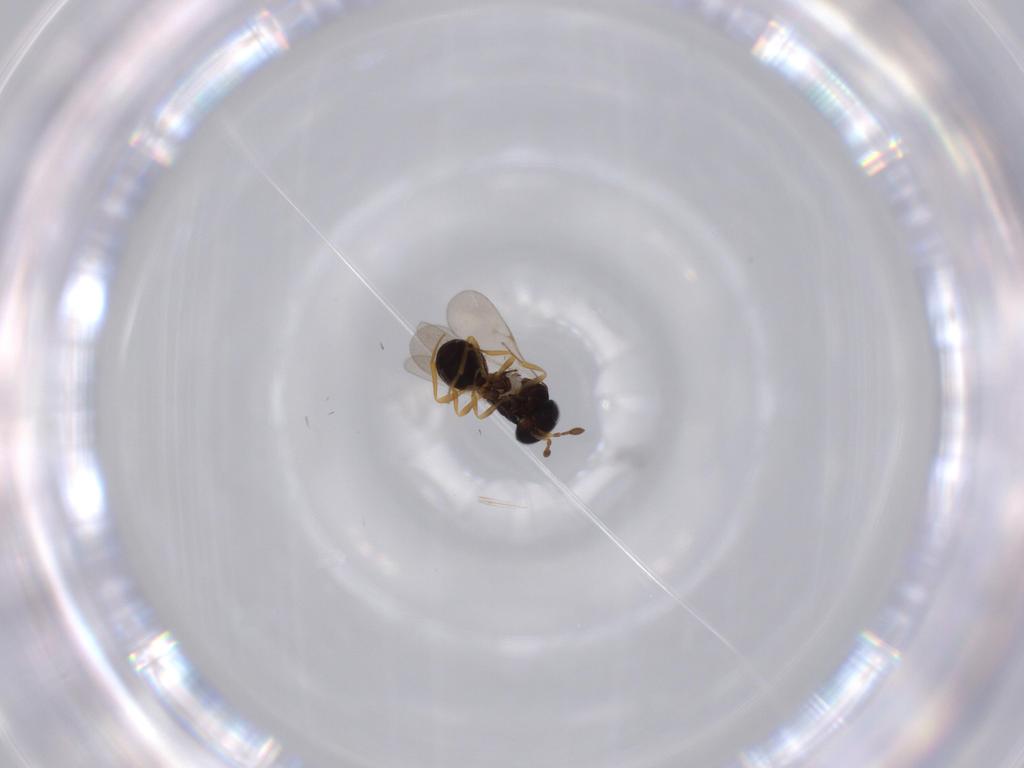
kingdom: Animalia
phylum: Arthropoda
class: Insecta
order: Hymenoptera
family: Scelionidae
